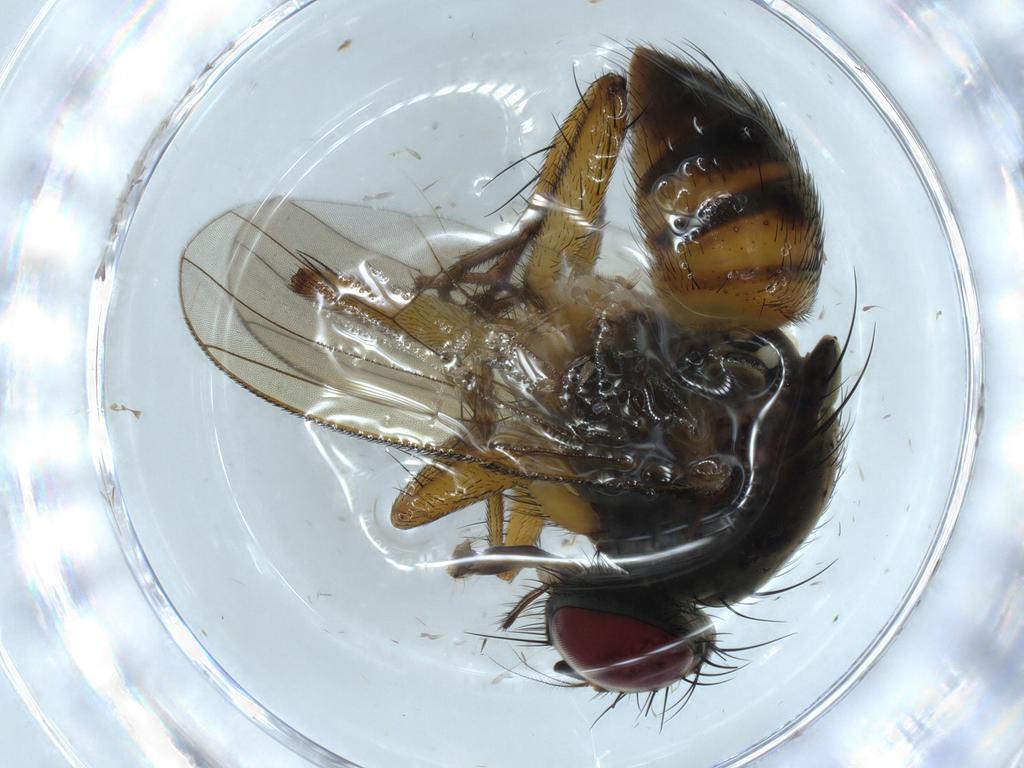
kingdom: Animalia
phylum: Arthropoda
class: Insecta
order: Diptera
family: Muscidae
